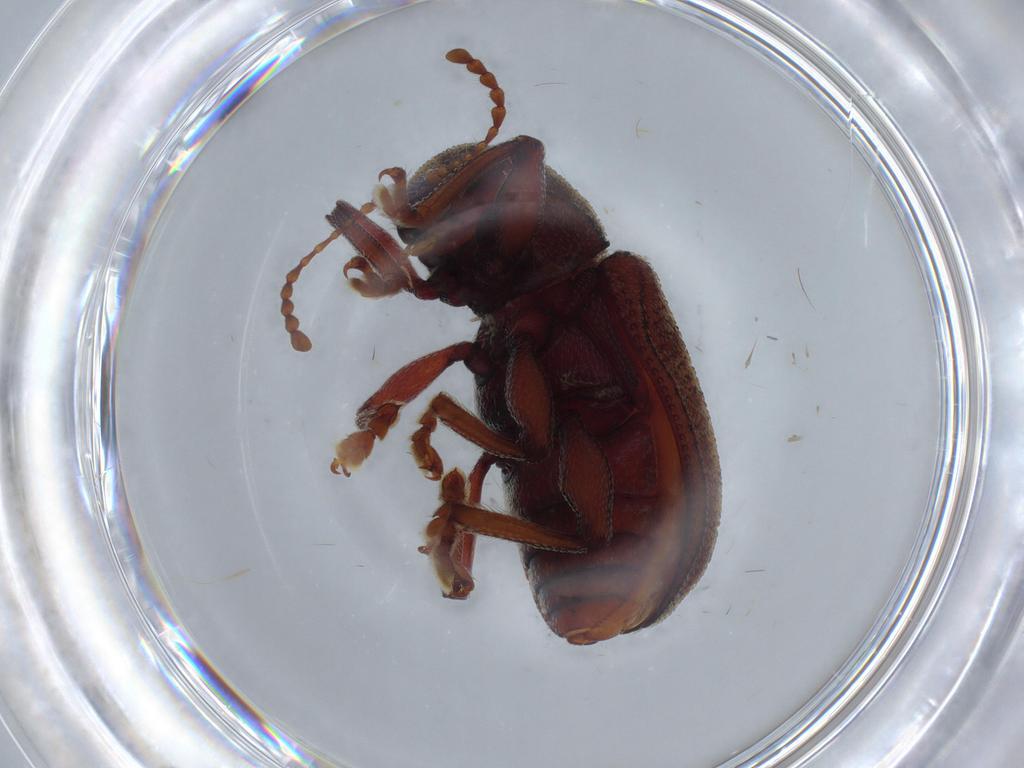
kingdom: Animalia
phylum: Arthropoda
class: Insecta
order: Coleoptera
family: Chrysomelidae
